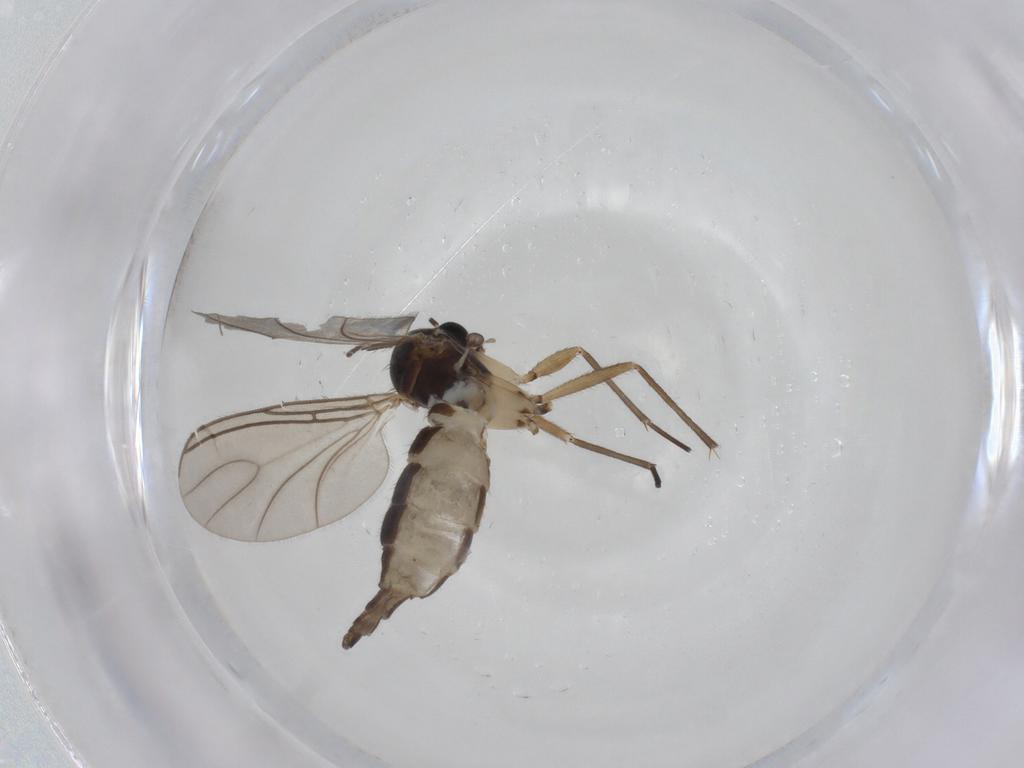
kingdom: Animalia
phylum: Arthropoda
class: Insecta
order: Diptera
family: Sciaridae
